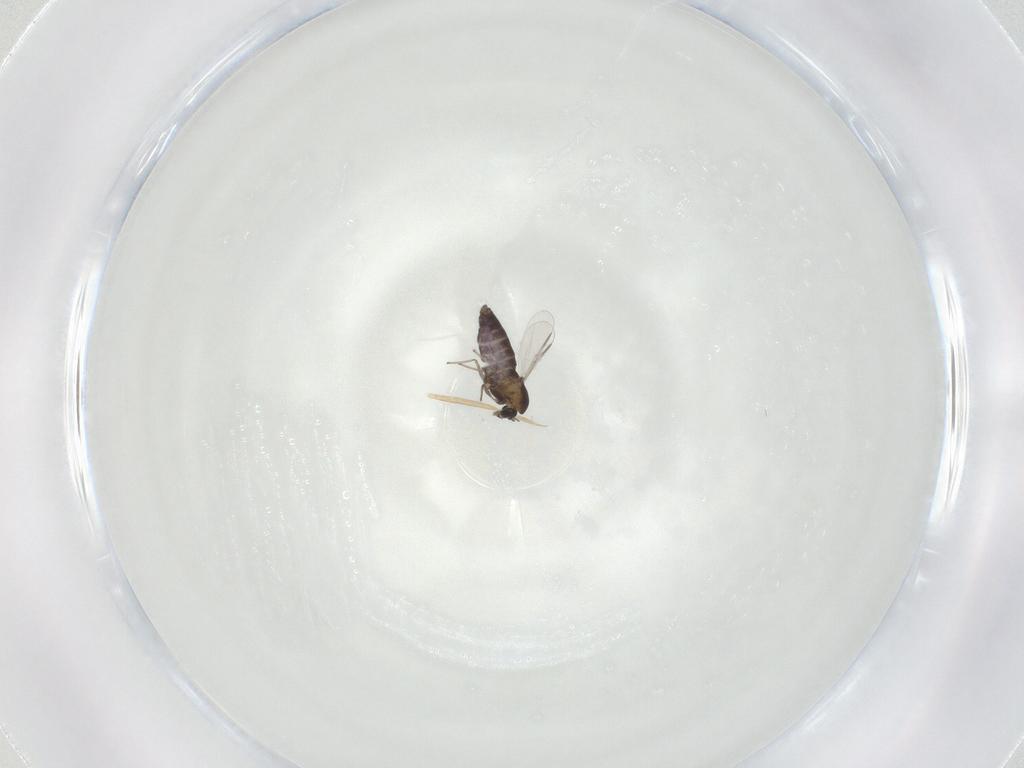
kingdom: Animalia
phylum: Arthropoda
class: Insecta
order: Diptera
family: Chironomidae
